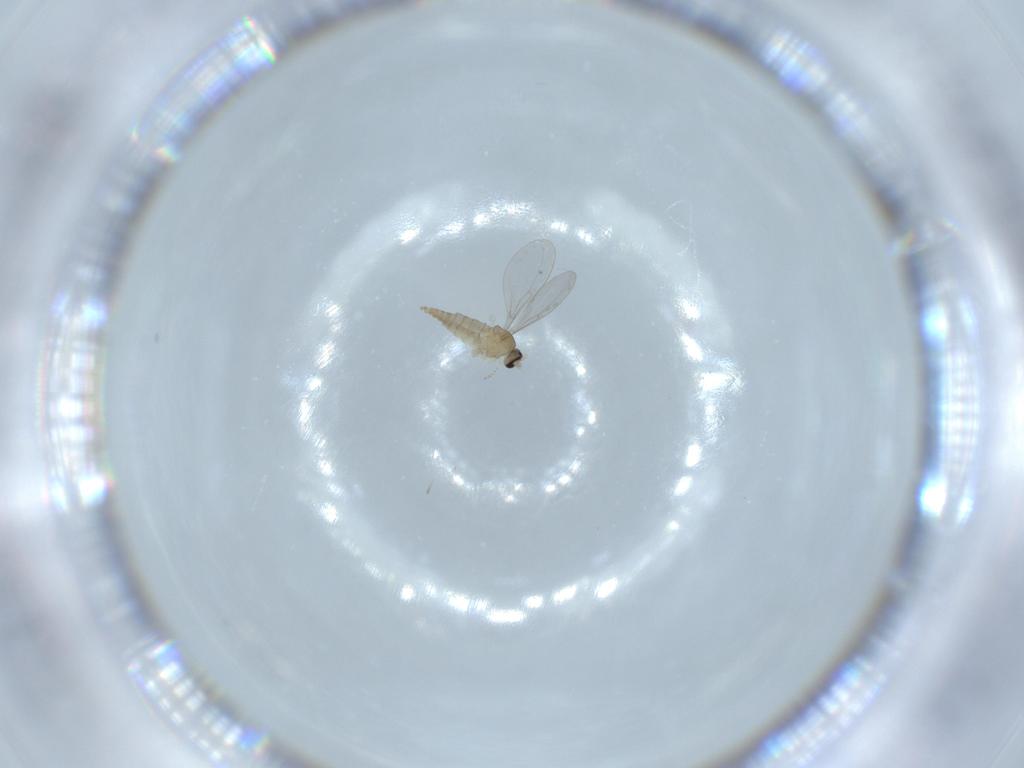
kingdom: Animalia
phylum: Arthropoda
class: Insecta
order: Diptera
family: Cecidomyiidae
